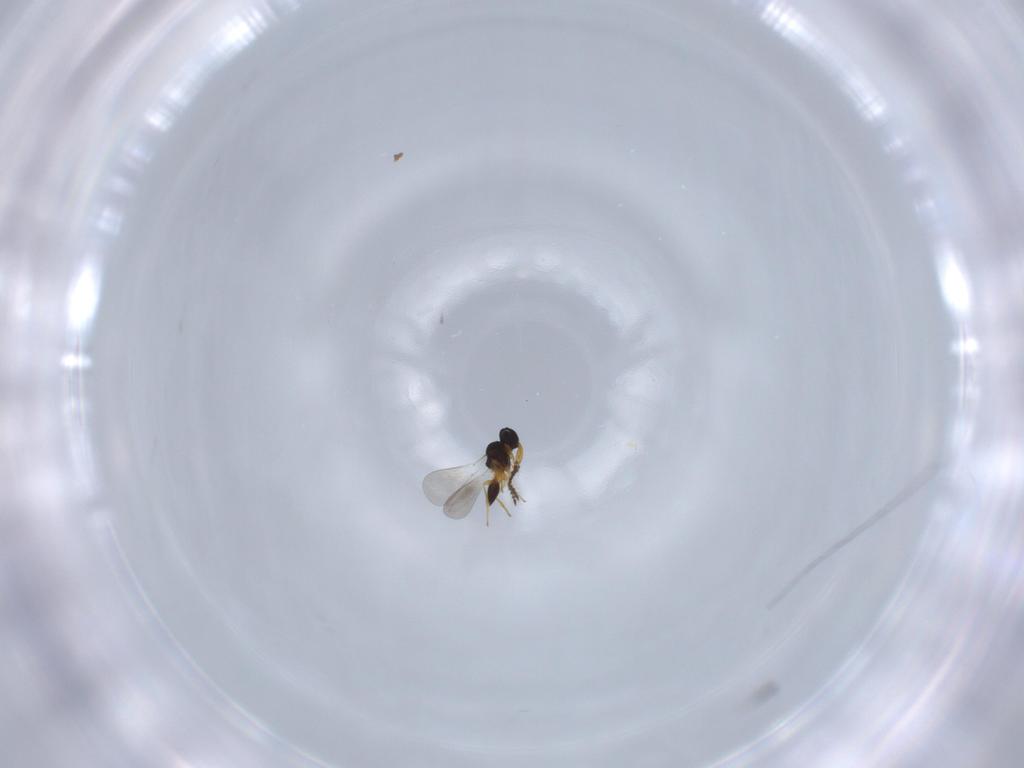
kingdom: Animalia
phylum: Arthropoda
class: Insecta
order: Hymenoptera
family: Platygastridae
